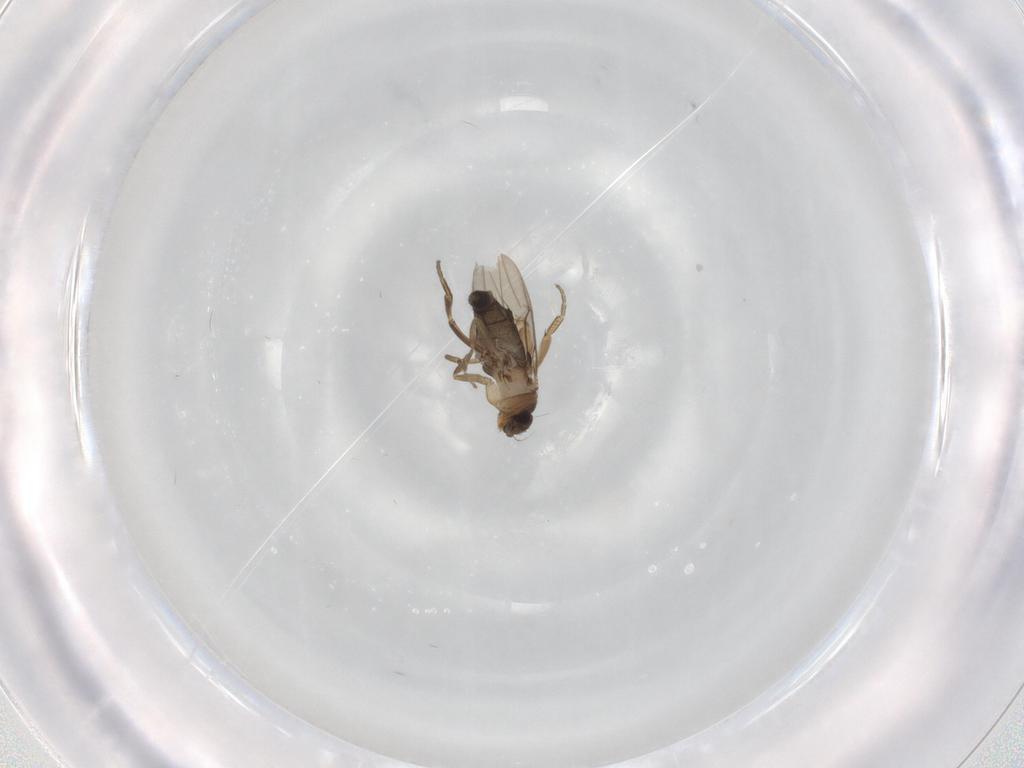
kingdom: Animalia
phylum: Arthropoda
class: Insecta
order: Diptera
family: Phoridae
